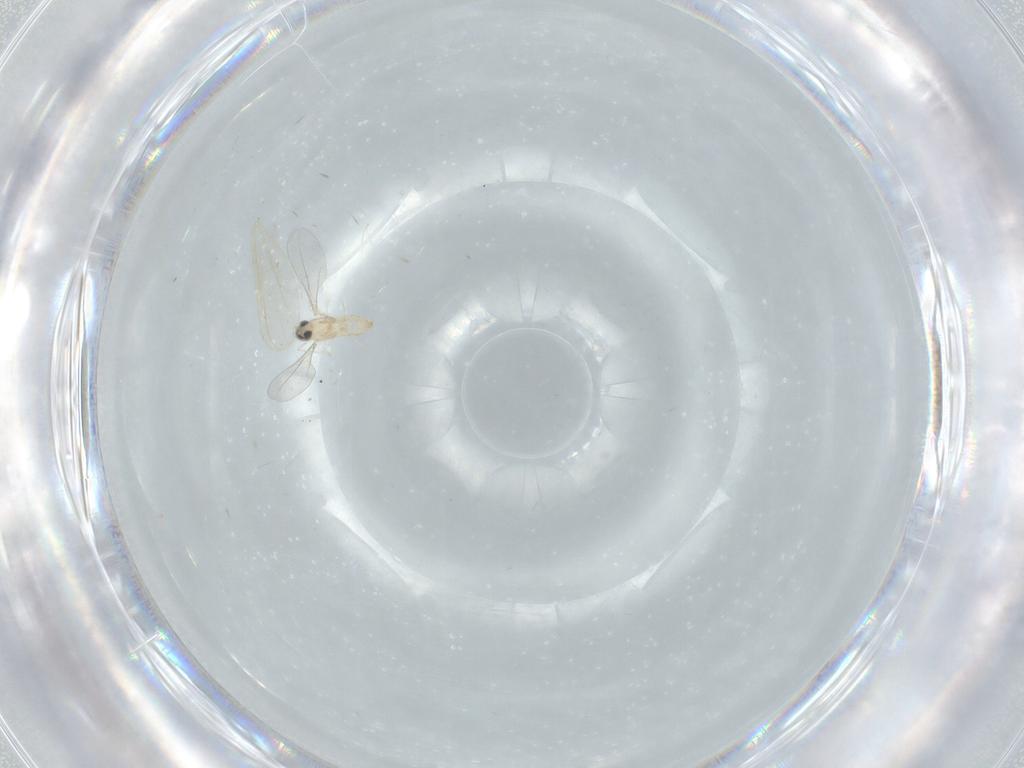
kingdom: Animalia
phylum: Arthropoda
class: Insecta
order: Diptera
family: Cecidomyiidae
